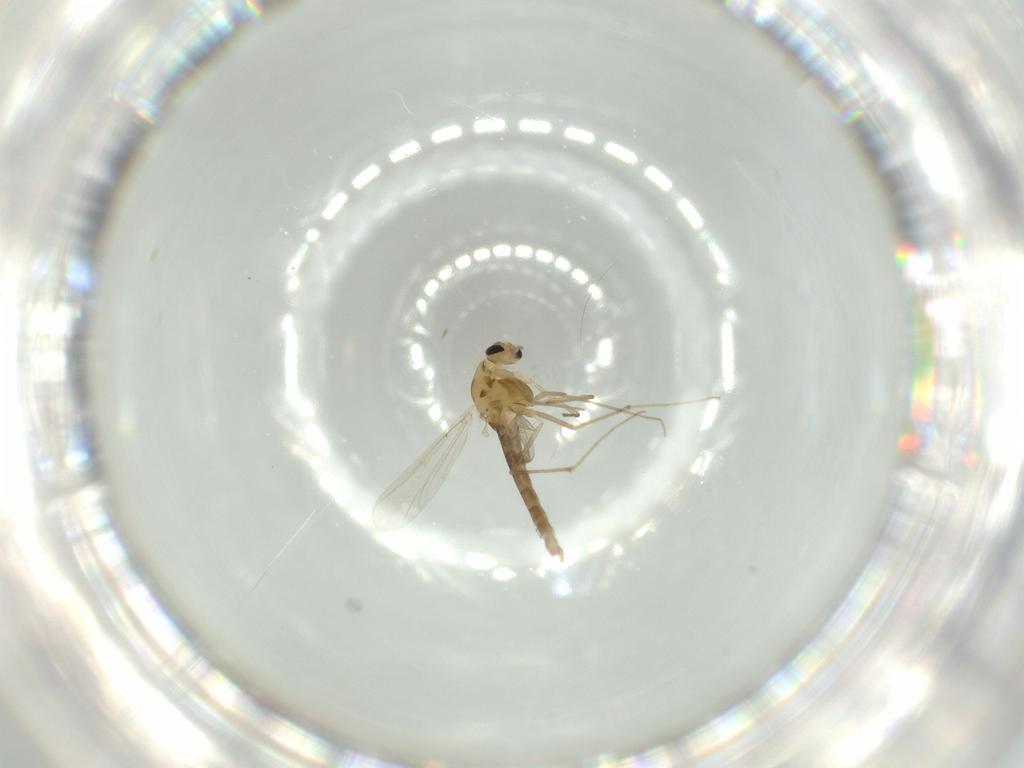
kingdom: Animalia
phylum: Arthropoda
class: Insecta
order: Diptera
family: Chironomidae
